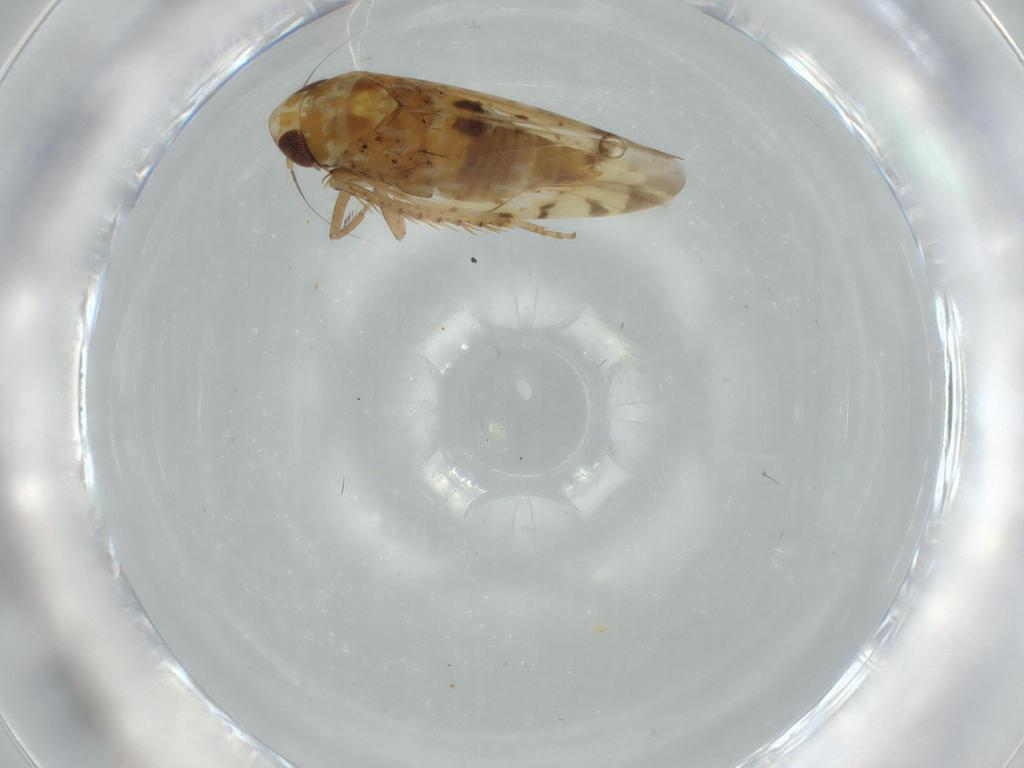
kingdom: Animalia
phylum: Arthropoda
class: Insecta
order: Hemiptera
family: Cicadellidae
